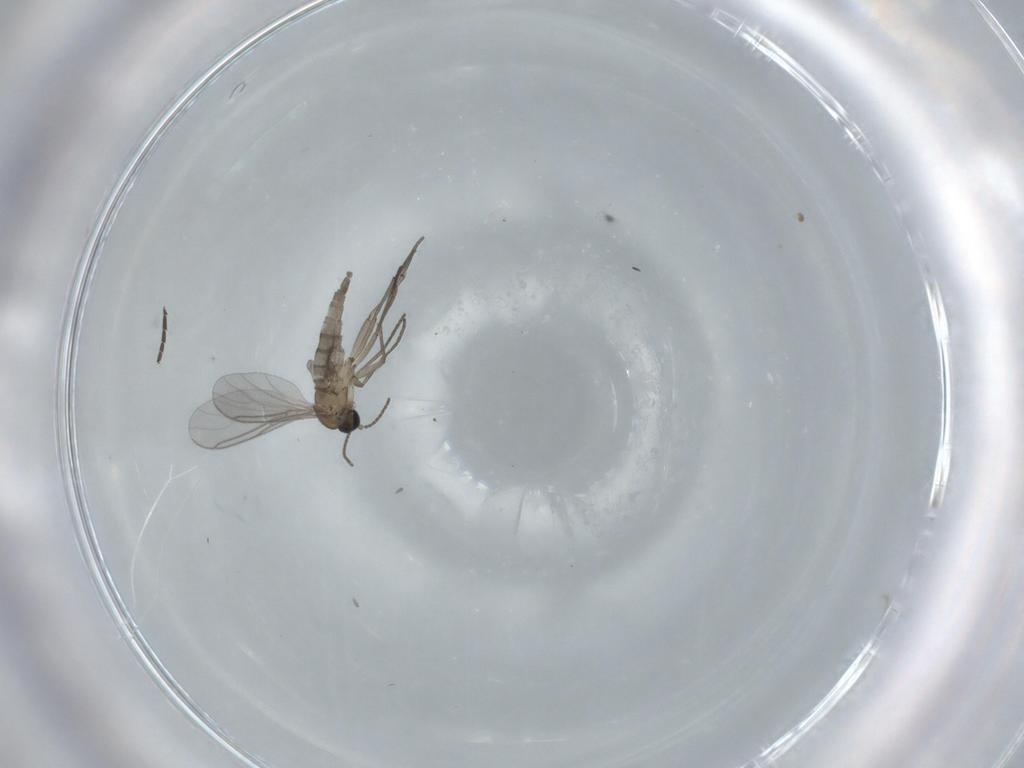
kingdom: Animalia
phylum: Arthropoda
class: Insecta
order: Diptera
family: Sciaridae
